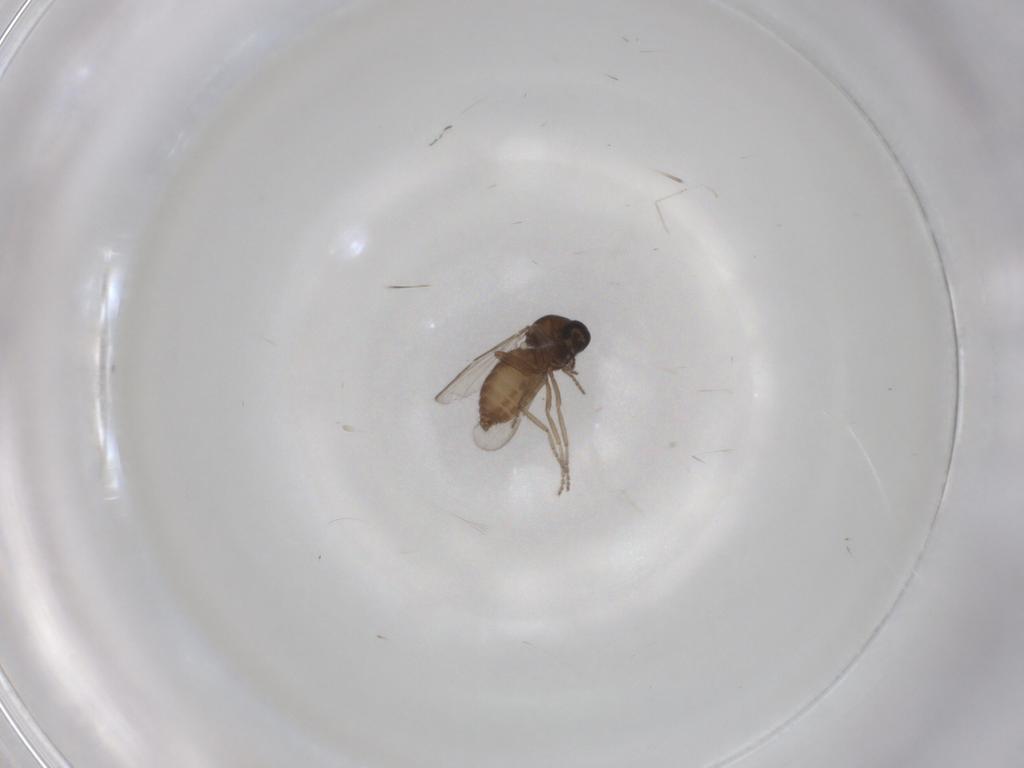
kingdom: Animalia
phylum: Arthropoda
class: Insecta
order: Diptera
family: Ceratopogonidae
